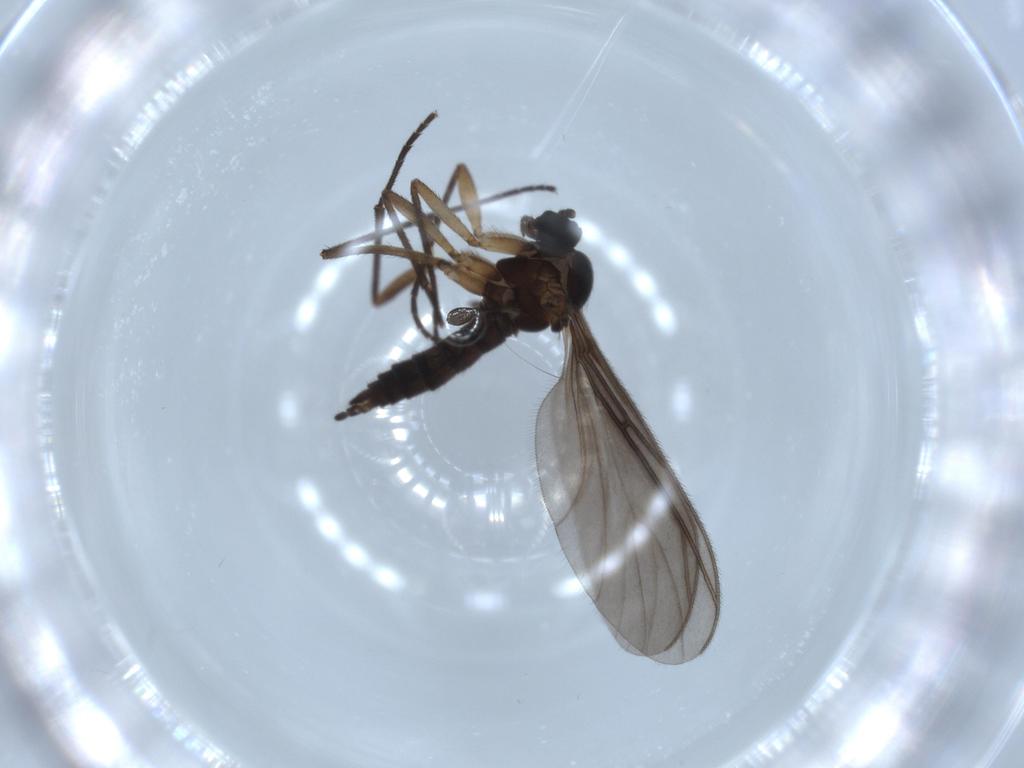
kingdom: Animalia
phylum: Arthropoda
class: Insecta
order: Diptera
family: Sciaridae
